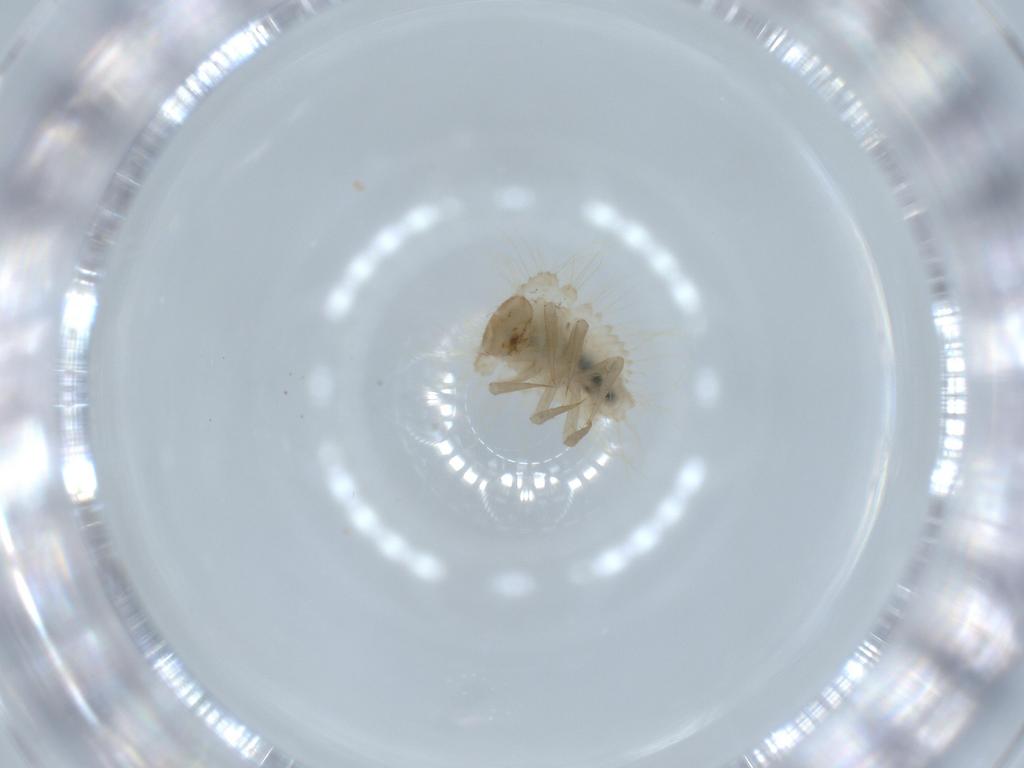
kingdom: Animalia
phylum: Arthropoda
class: Insecta
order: Coleoptera
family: Anamorphidae
